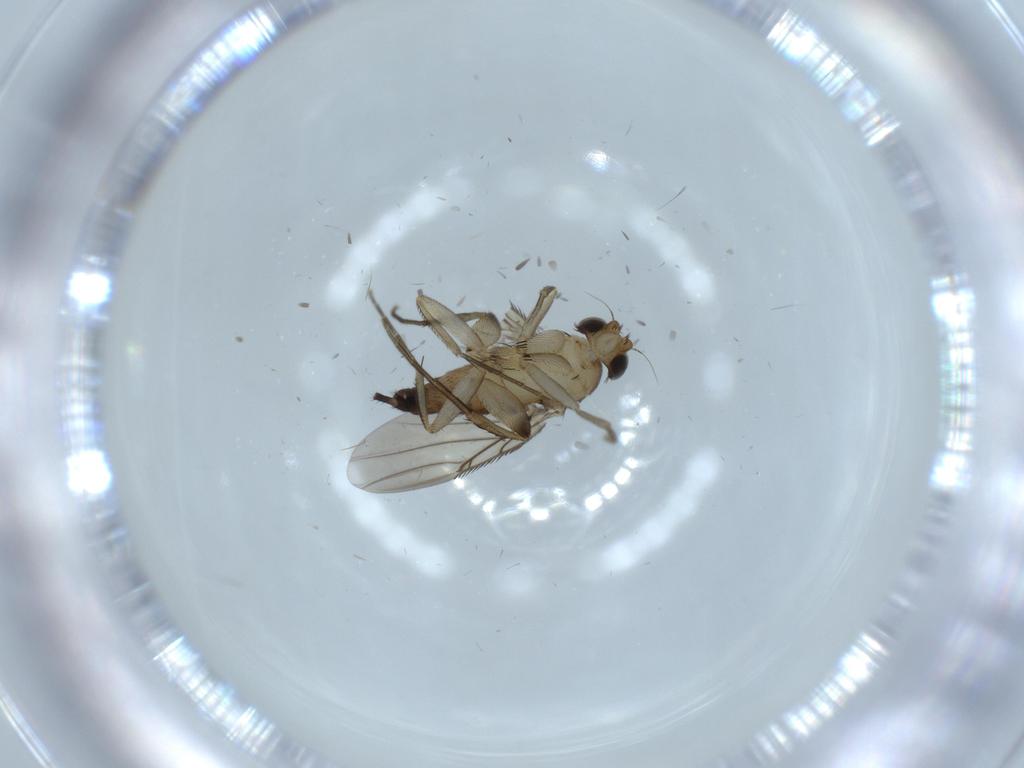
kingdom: Animalia
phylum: Arthropoda
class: Insecta
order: Diptera
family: Phoridae
